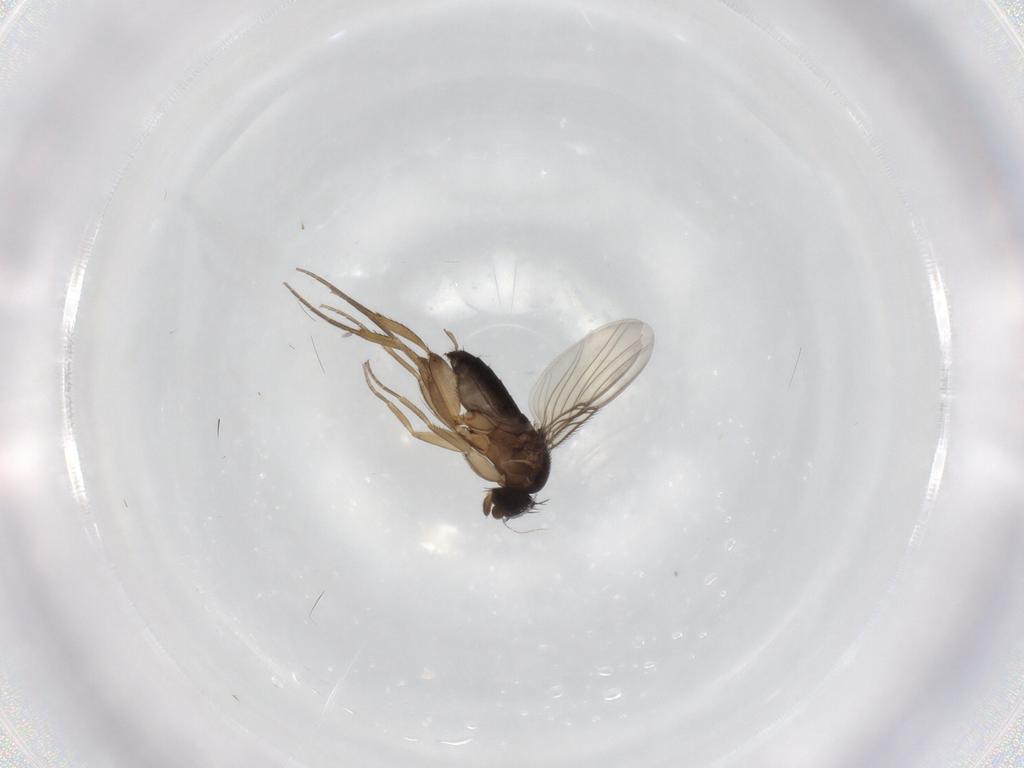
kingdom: Animalia
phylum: Arthropoda
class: Insecta
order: Diptera
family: Phoridae
